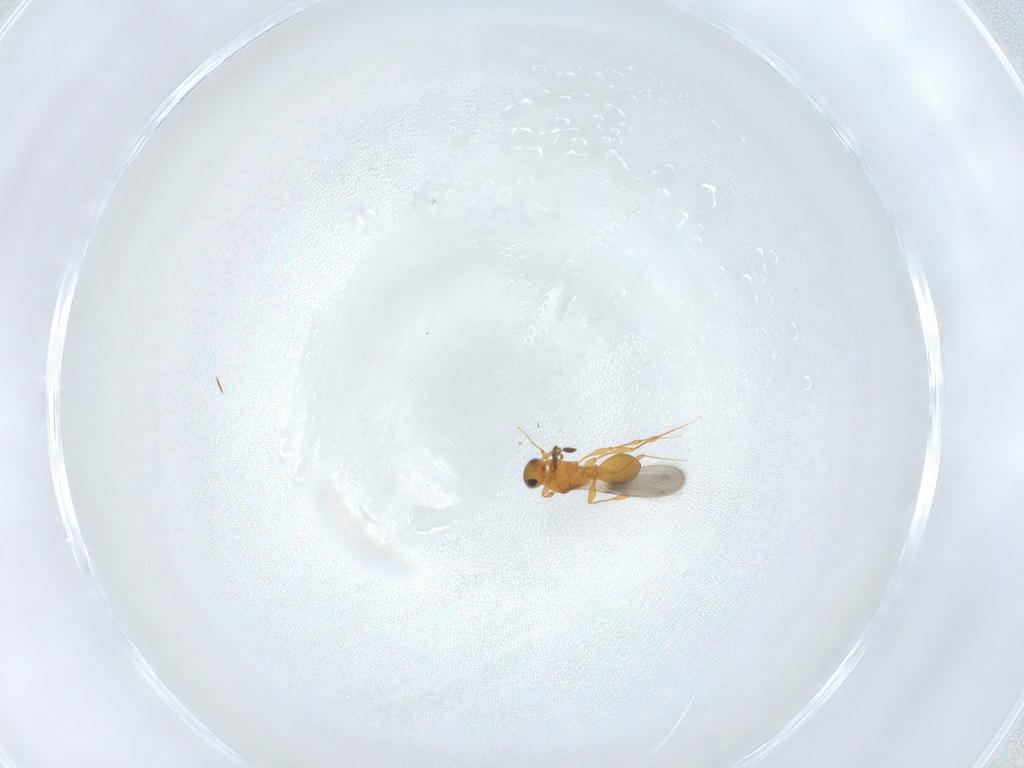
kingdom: Animalia
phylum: Arthropoda
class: Insecta
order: Hymenoptera
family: Platygastridae
